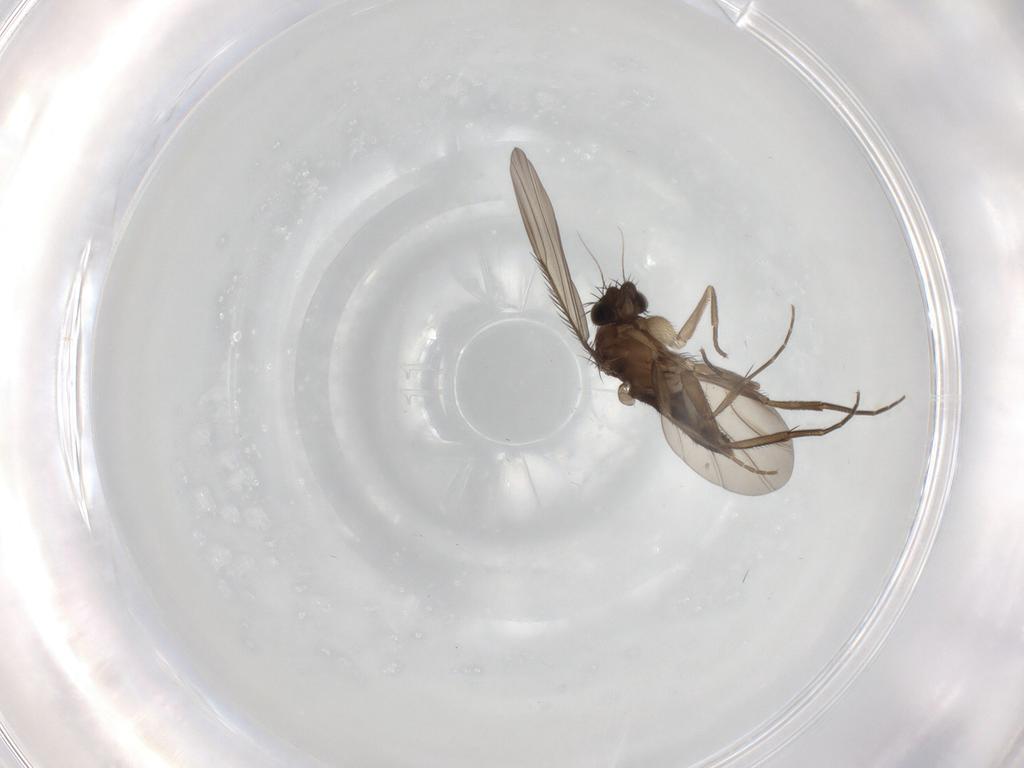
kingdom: Animalia
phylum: Arthropoda
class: Insecta
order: Diptera
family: Phoridae
